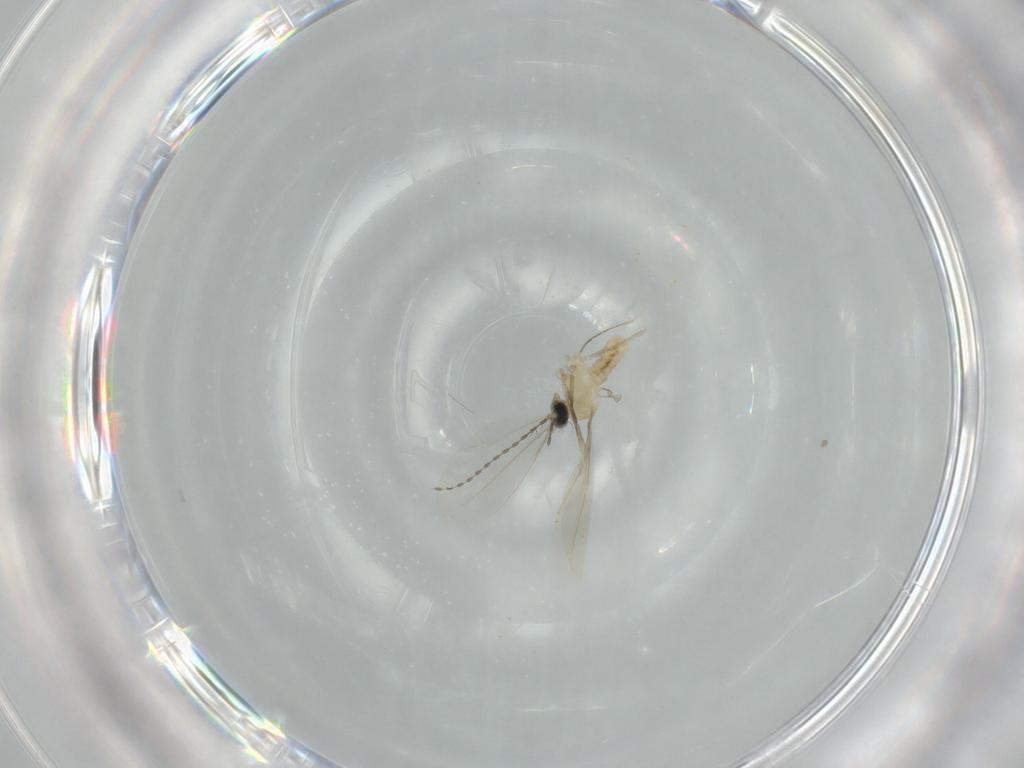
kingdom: Animalia
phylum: Arthropoda
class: Insecta
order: Diptera
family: Cecidomyiidae
